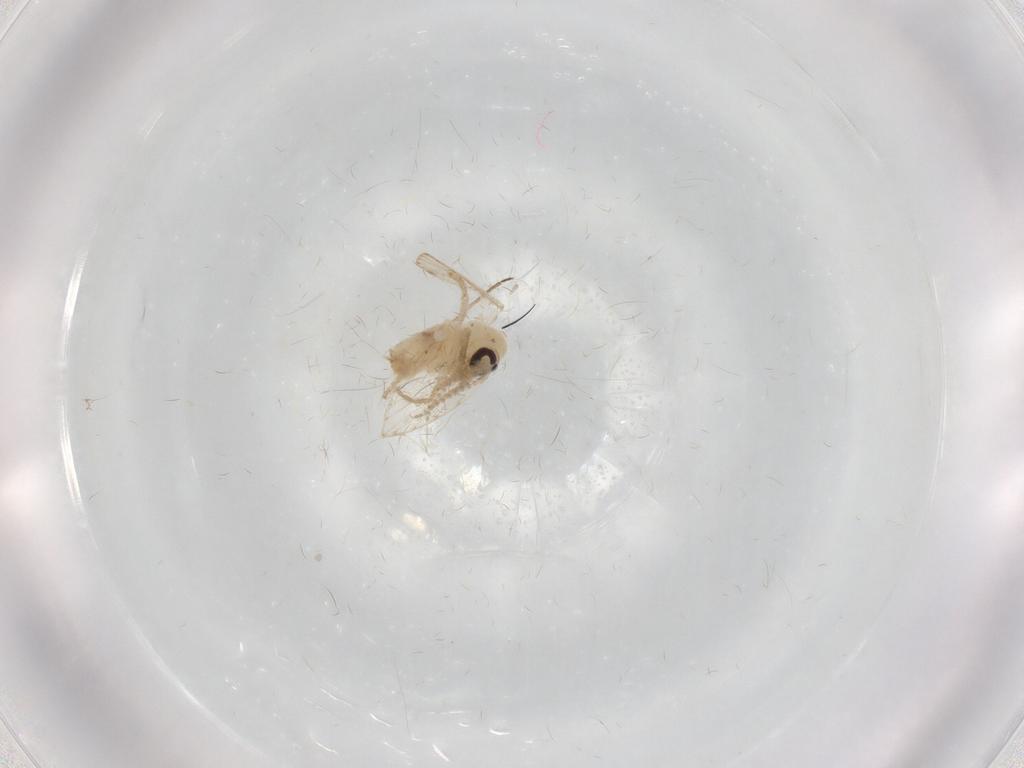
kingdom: Animalia
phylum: Arthropoda
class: Insecta
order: Diptera
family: Psychodidae
